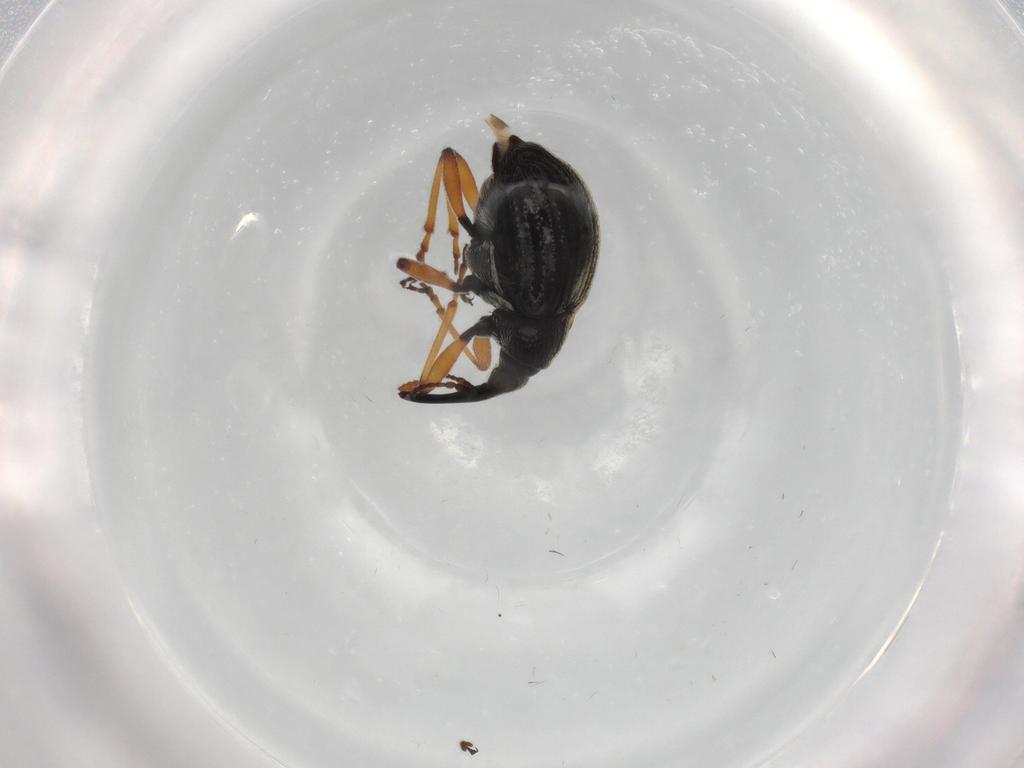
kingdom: Animalia
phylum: Arthropoda
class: Insecta
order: Coleoptera
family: Brentidae
